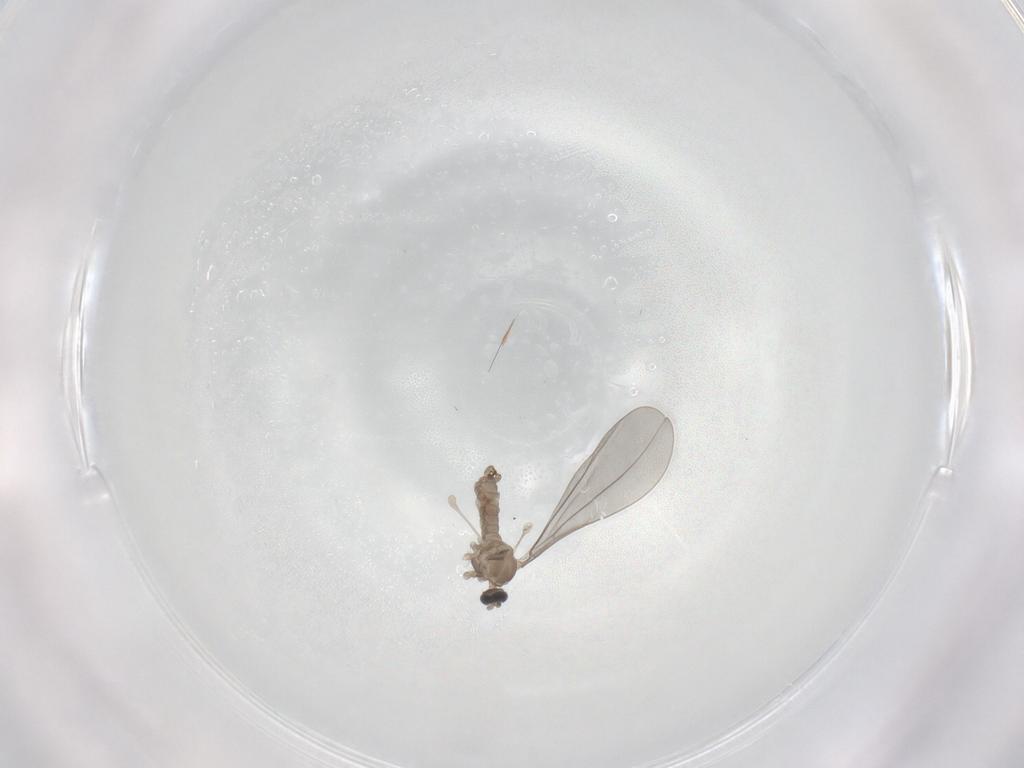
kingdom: Animalia
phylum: Arthropoda
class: Insecta
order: Diptera
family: Cecidomyiidae
